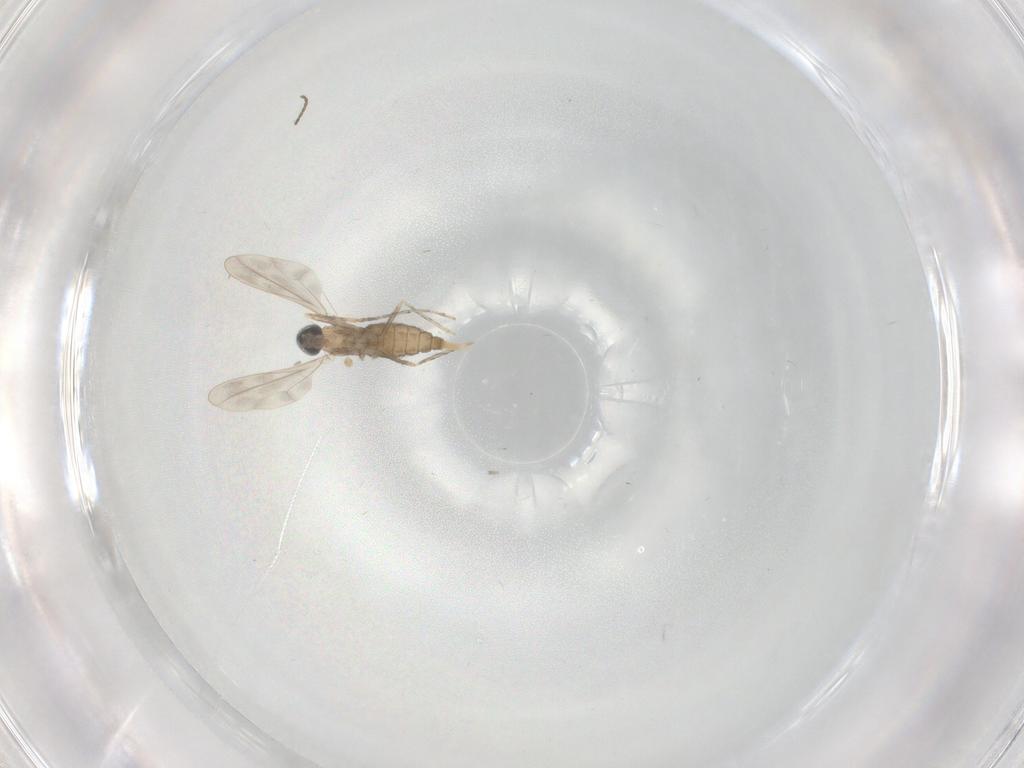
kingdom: Animalia
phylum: Arthropoda
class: Insecta
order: Diptera
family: Cecidomyiidae
